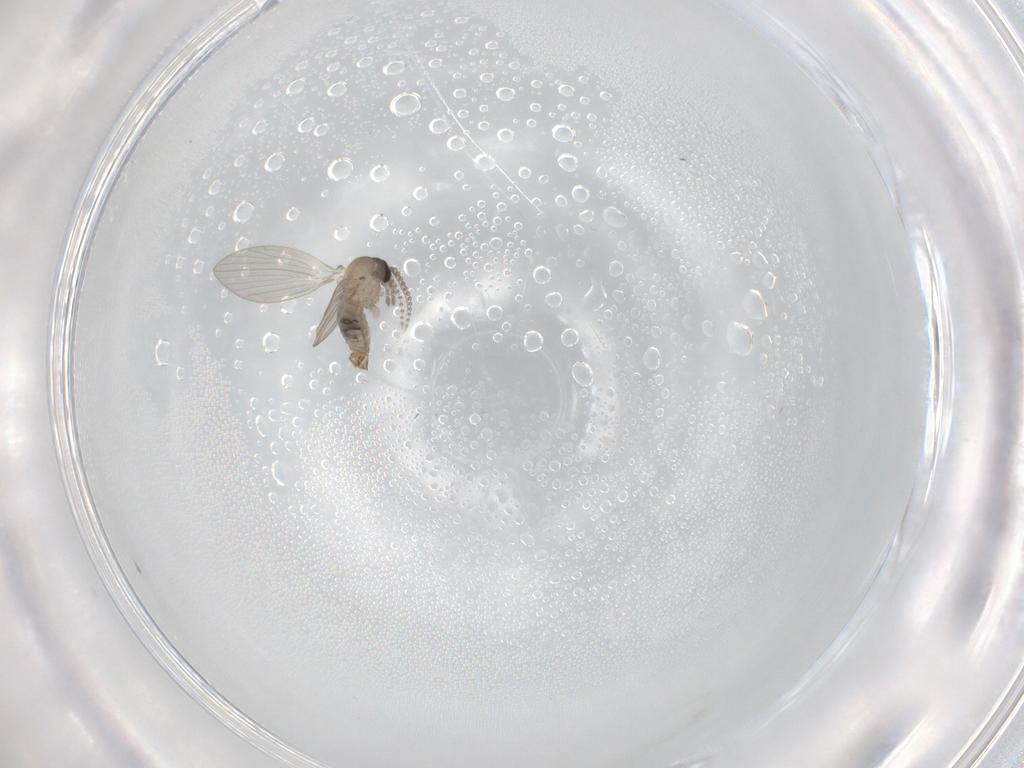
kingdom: Animalia
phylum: Arthropoda
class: Insecta
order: Diptera
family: Psychodidae
